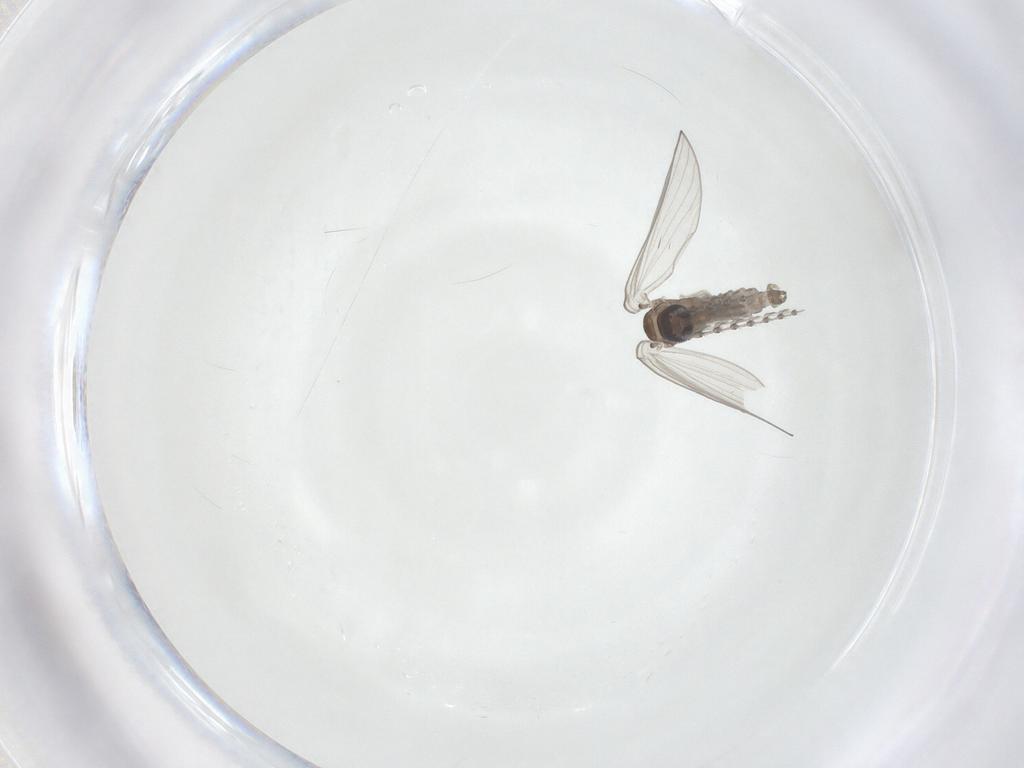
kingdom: Animalia
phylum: Arthropoda
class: Insecta
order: Diptera
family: Psychodidae
